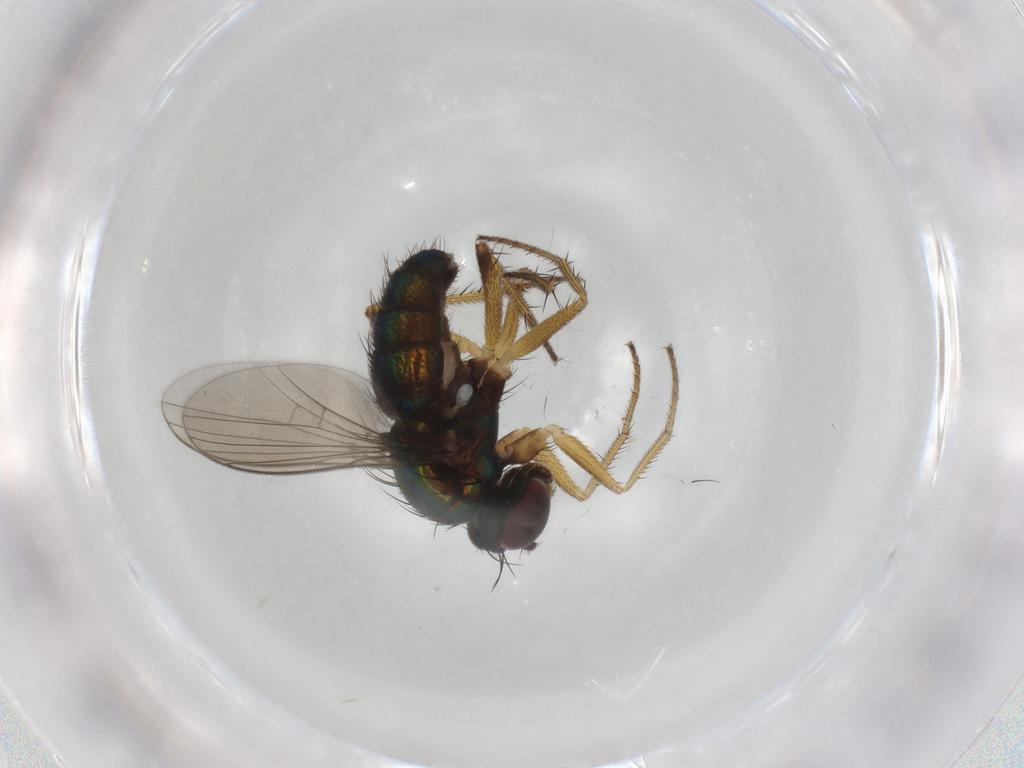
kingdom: Animalia
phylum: Arthropoda
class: Insecta
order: Diptera
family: Dolichopodidae
